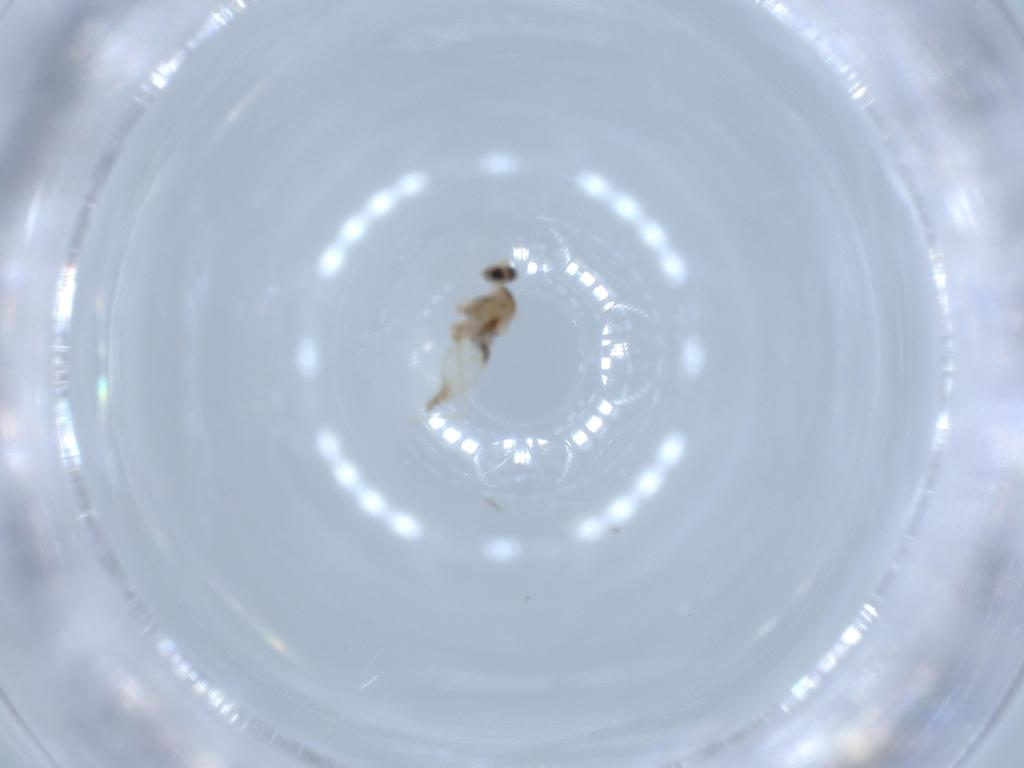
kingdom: Animalia
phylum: Arthropoda
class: Insecta
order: Diptera
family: Cecidomyiidae
